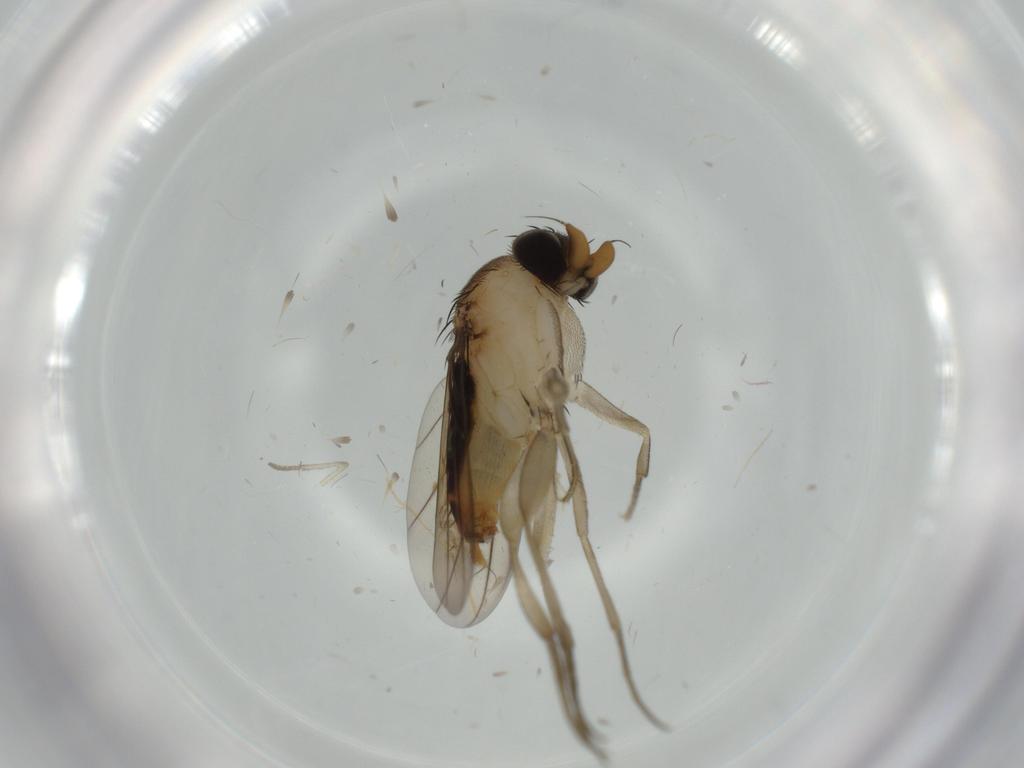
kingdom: Animalia
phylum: Arthropoda
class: Insecta
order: Diptera
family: Phoridae
